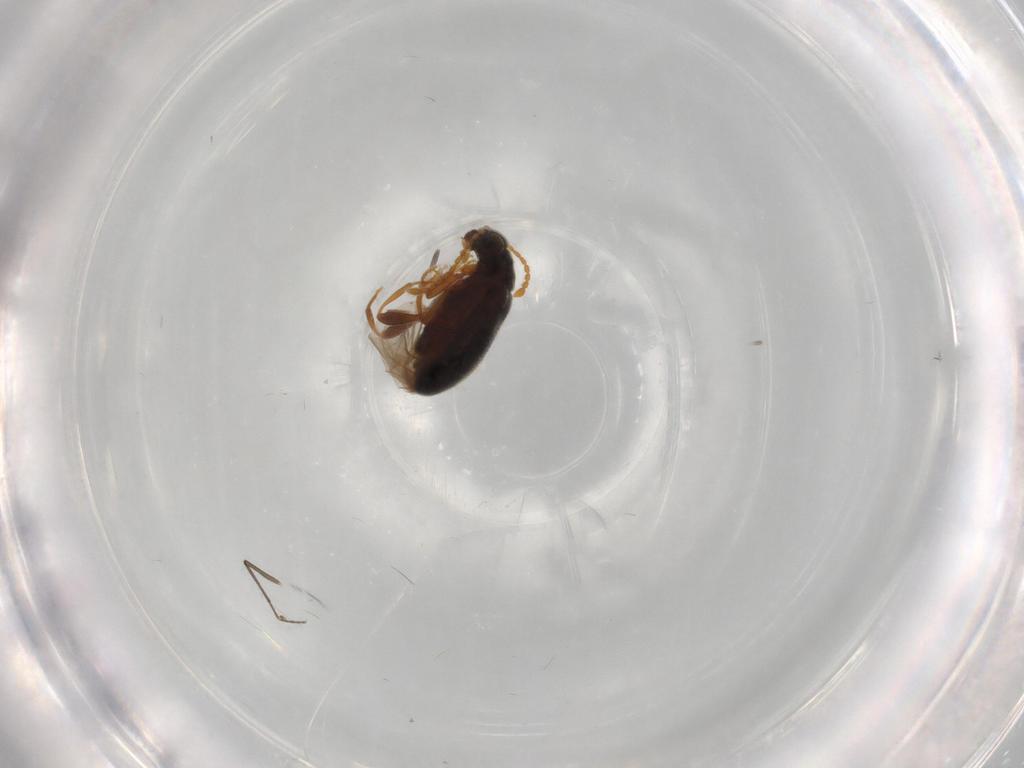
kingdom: Animalia
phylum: Arthropoda
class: Insecta
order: Coleoptera
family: Aderidae
